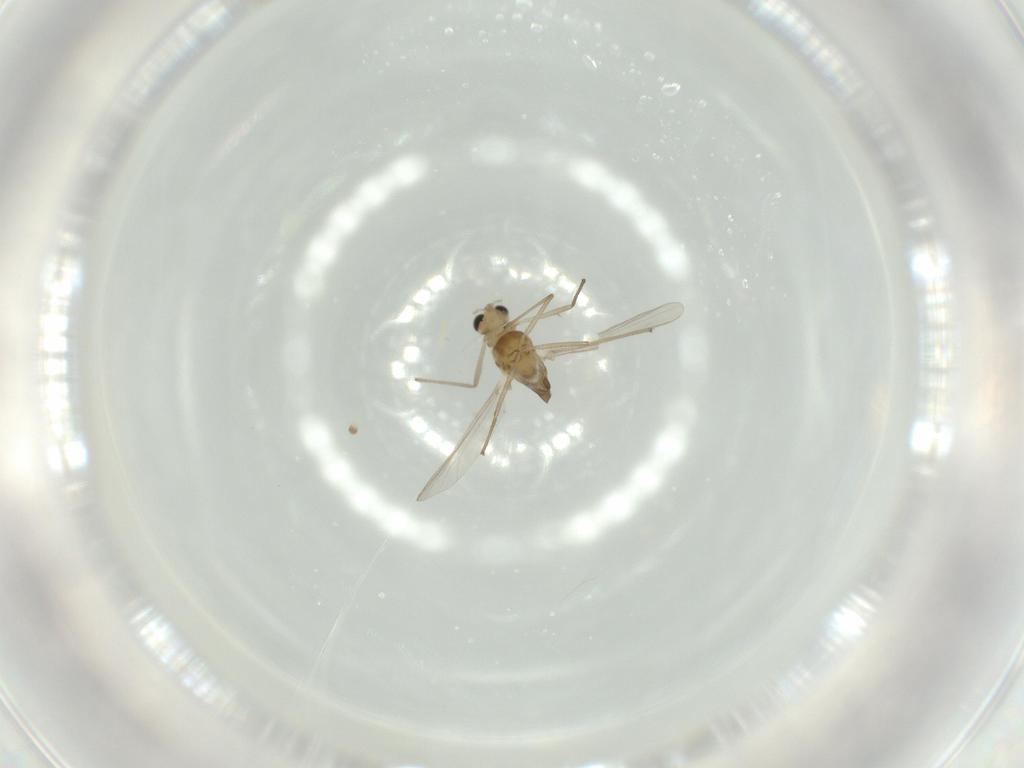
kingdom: Animalia
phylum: Arthropoda
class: Insecta
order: Diptera
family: Chironomidae
